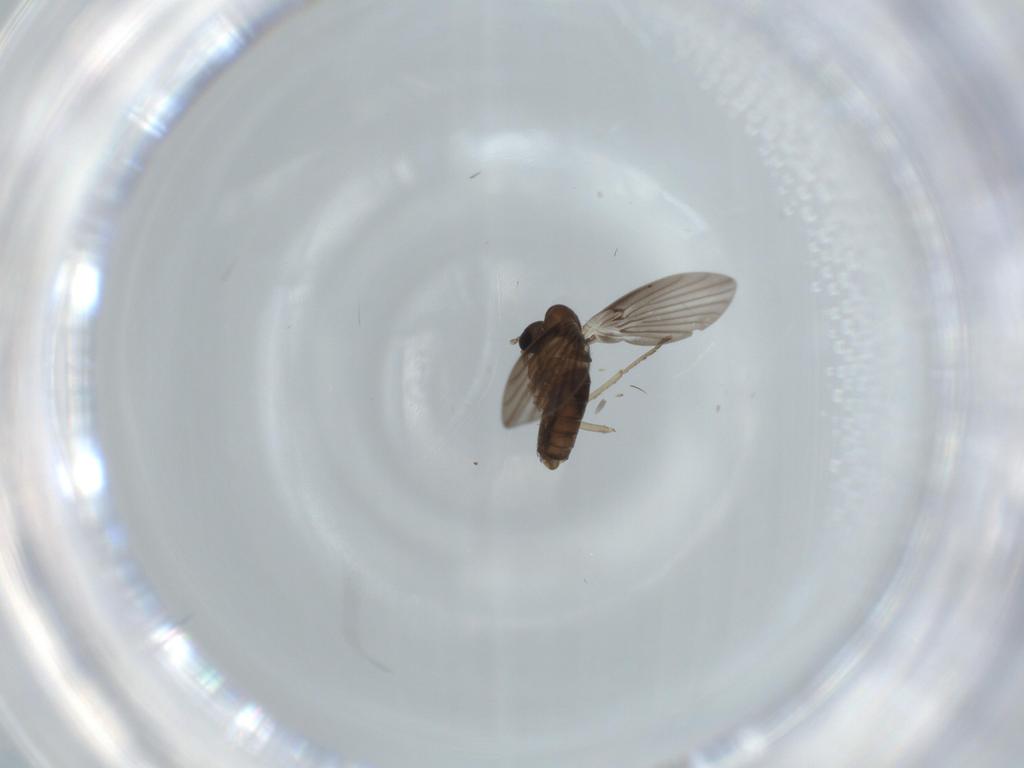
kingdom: Animalia
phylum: Arthropoda
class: Insecta
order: Diptera
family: Psychodidae
